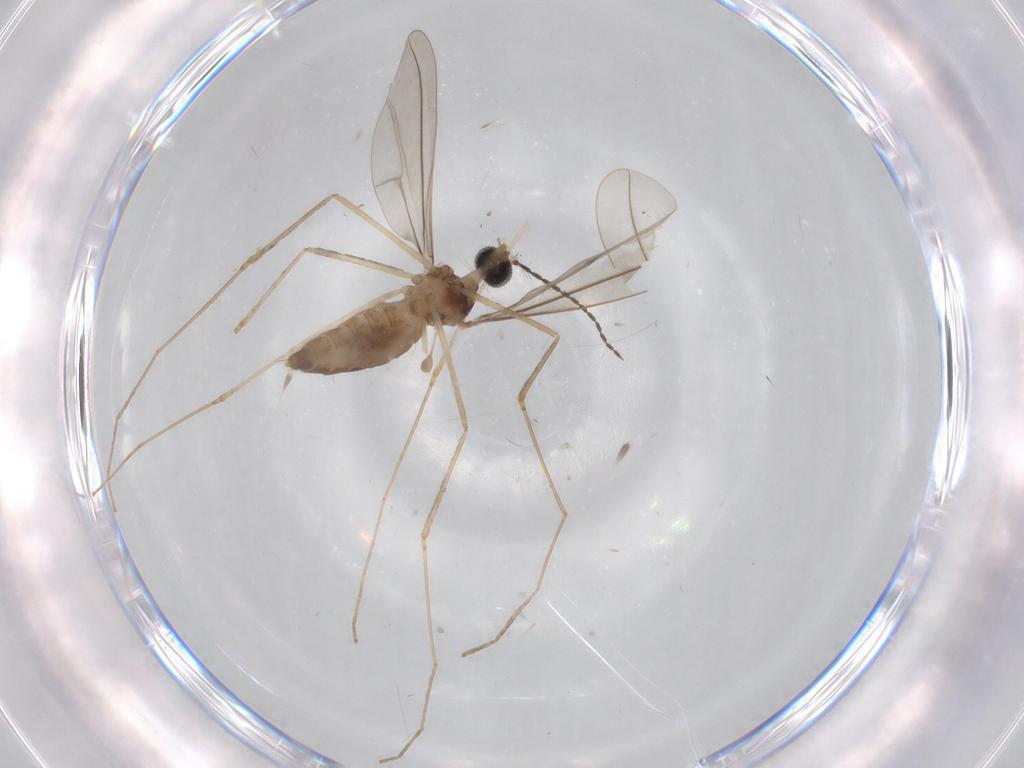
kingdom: Animalia
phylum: Arthropoda
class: Insecta
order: Diptera
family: Cecidomyiidae
